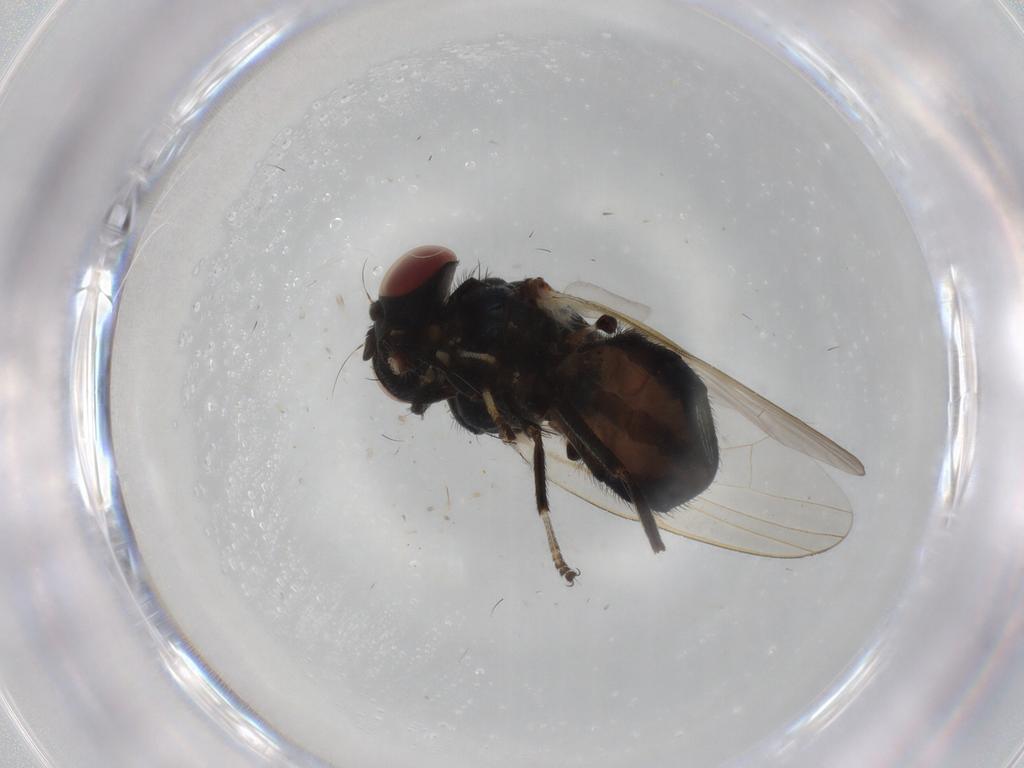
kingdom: Animalia
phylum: Arthropoda
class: Insecta
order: Diptera
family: Lonchaeidae
